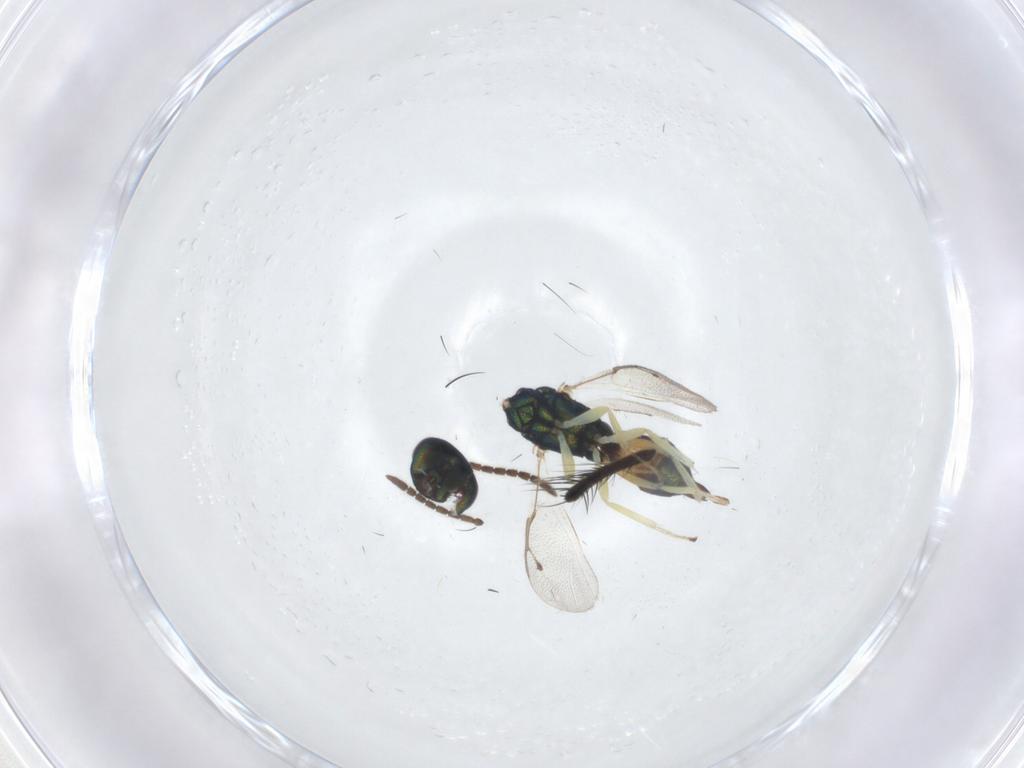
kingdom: Animalia
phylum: Arthropoda
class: Insecta
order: Hymenoptera
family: Pteromalidae
